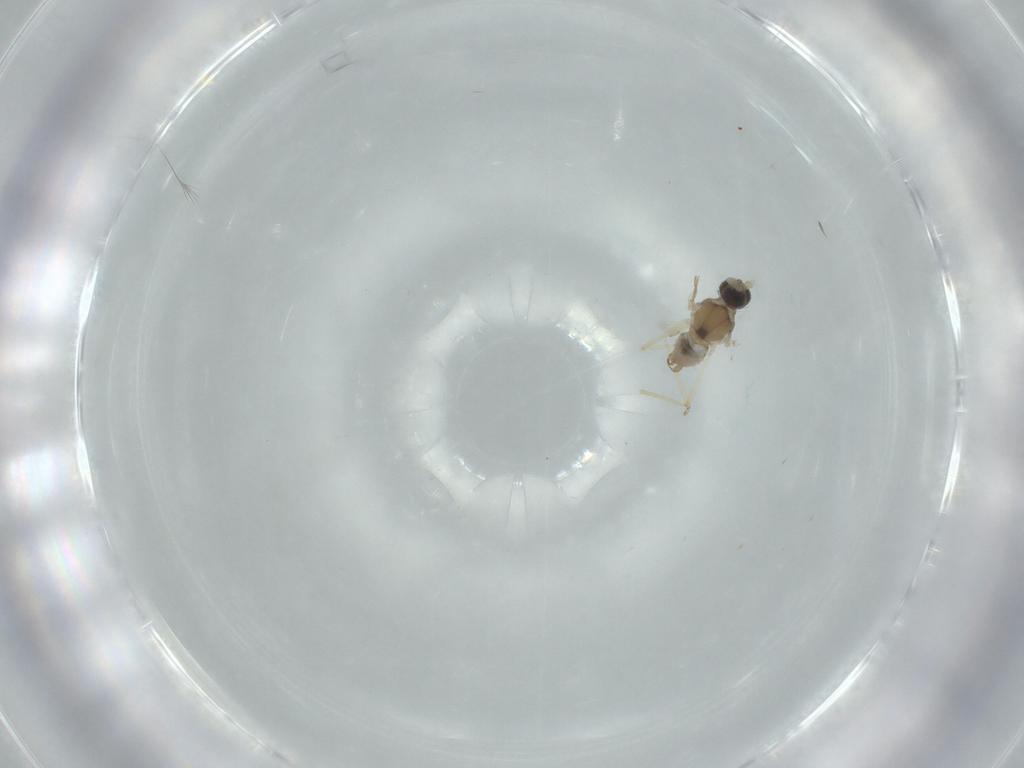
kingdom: Animalia
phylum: Arthropoda
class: Insecta
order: Diptera
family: Cecidomyiidae
